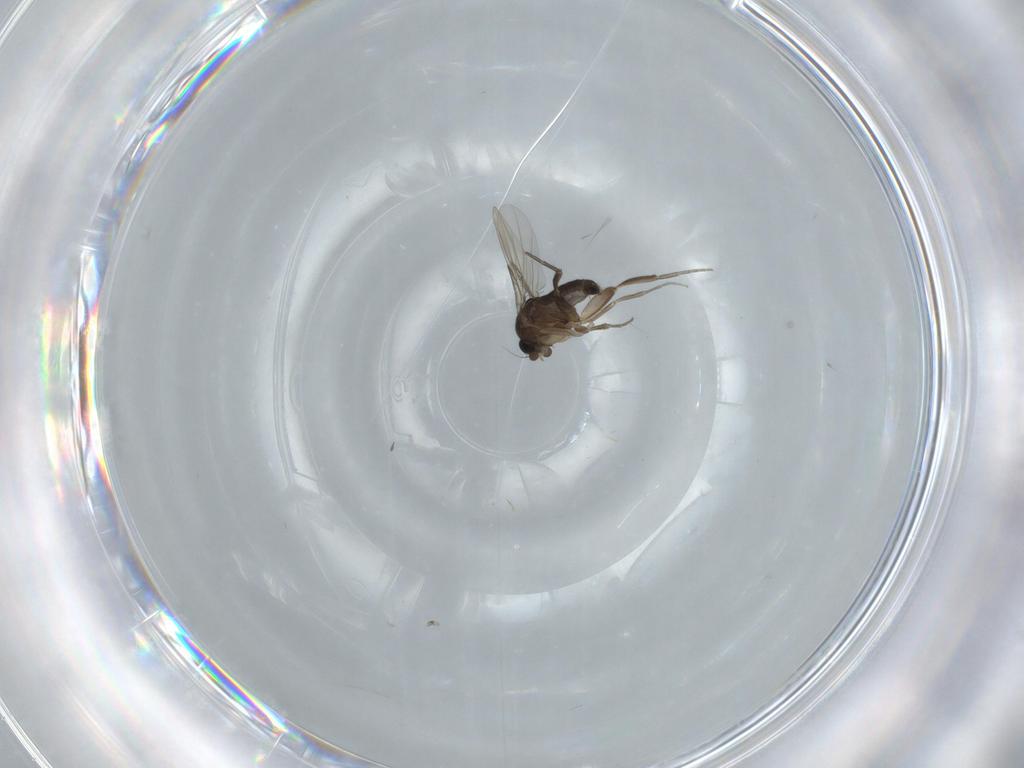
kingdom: Animalia
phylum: Arthropoda
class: Insecta
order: Diptera
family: Phoridae
